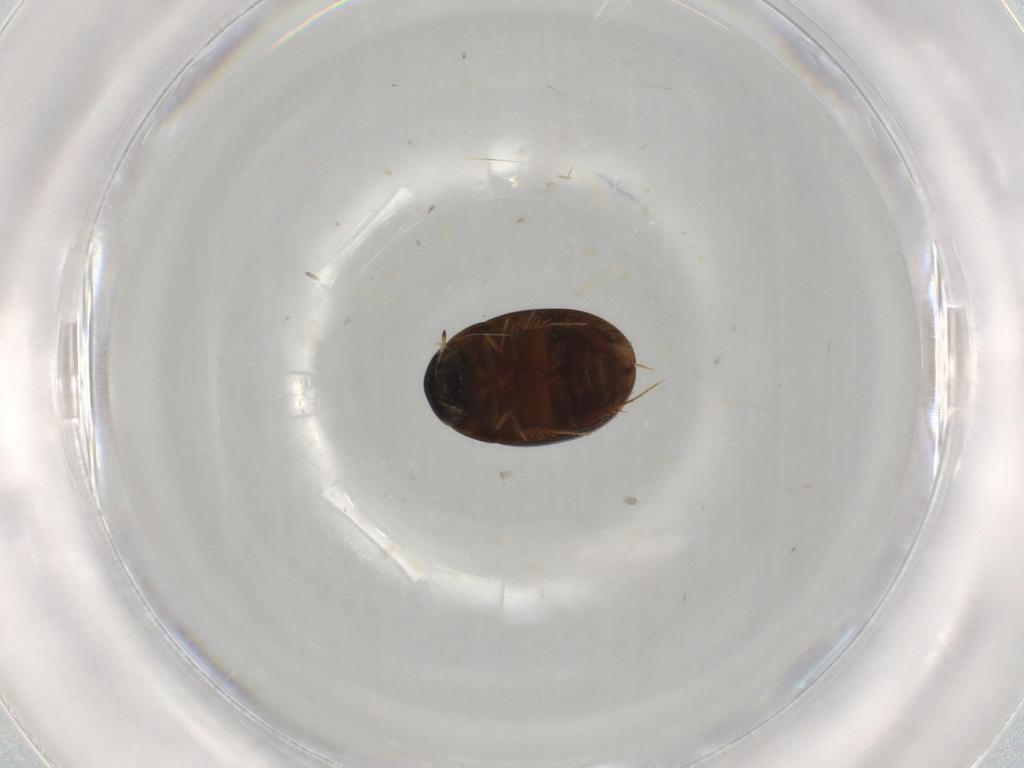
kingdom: Animalia
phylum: Arthropoda
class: Insecta
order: Coleoptera
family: Hydrophilidae
